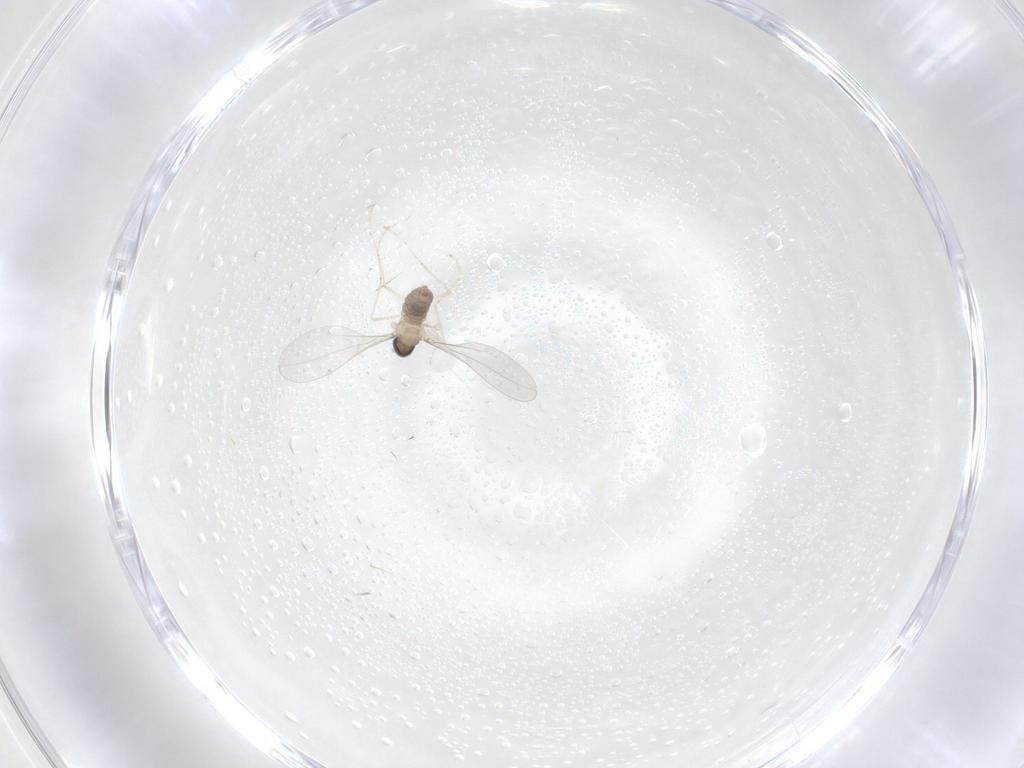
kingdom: Animalia
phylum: Arthropoda
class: Insecta
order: Diptera
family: Cecidomyiidae
